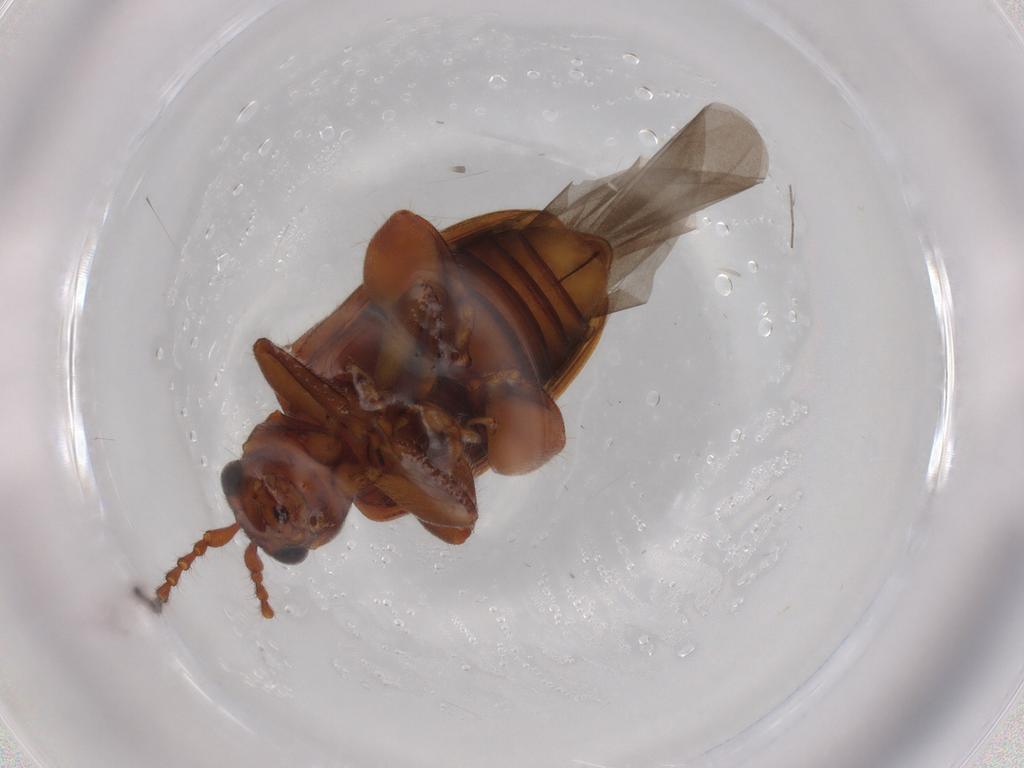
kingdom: Animalia
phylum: Arthropoda
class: Insecta
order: Coleoptera
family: Chrysomelidae
